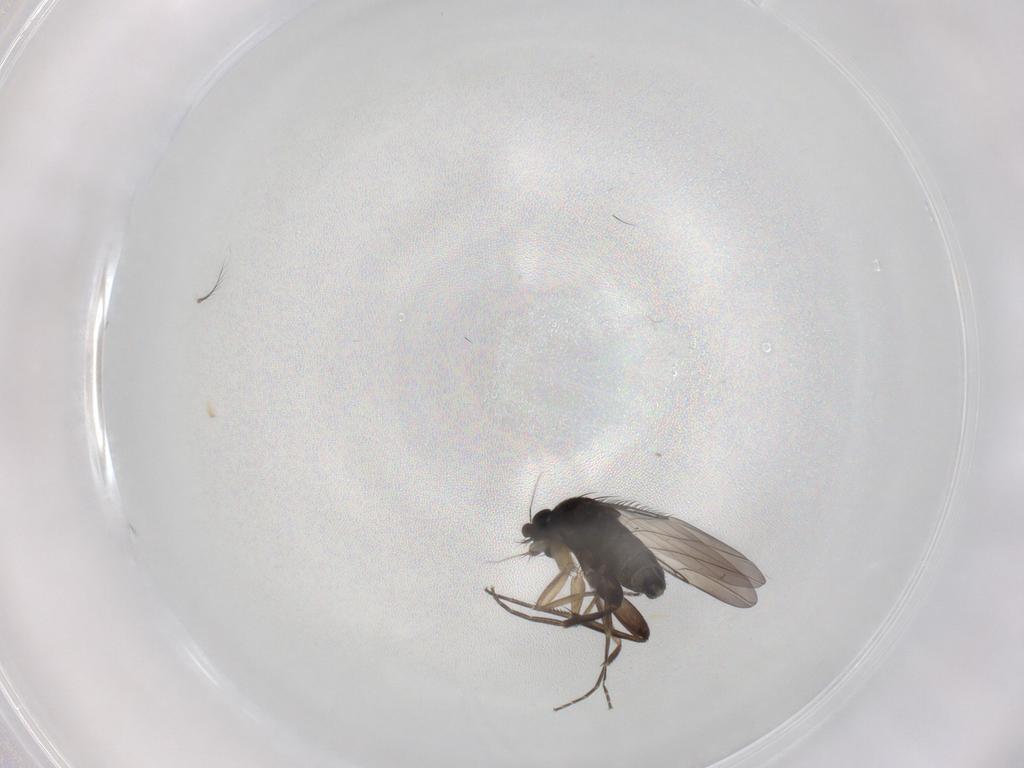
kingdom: Animalia
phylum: Arthropoda
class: Insecta
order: Diptera
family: Phoridae
